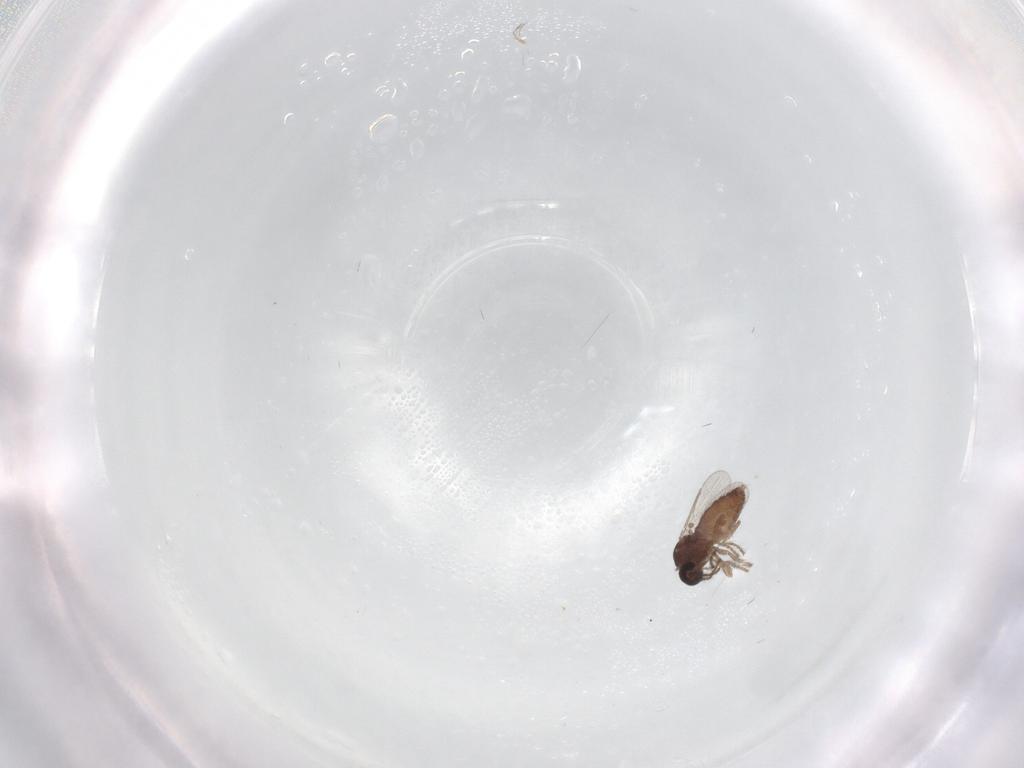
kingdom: Animalia
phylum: Arthropoda
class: Insecta
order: Diptera
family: Ceratopogonidae
